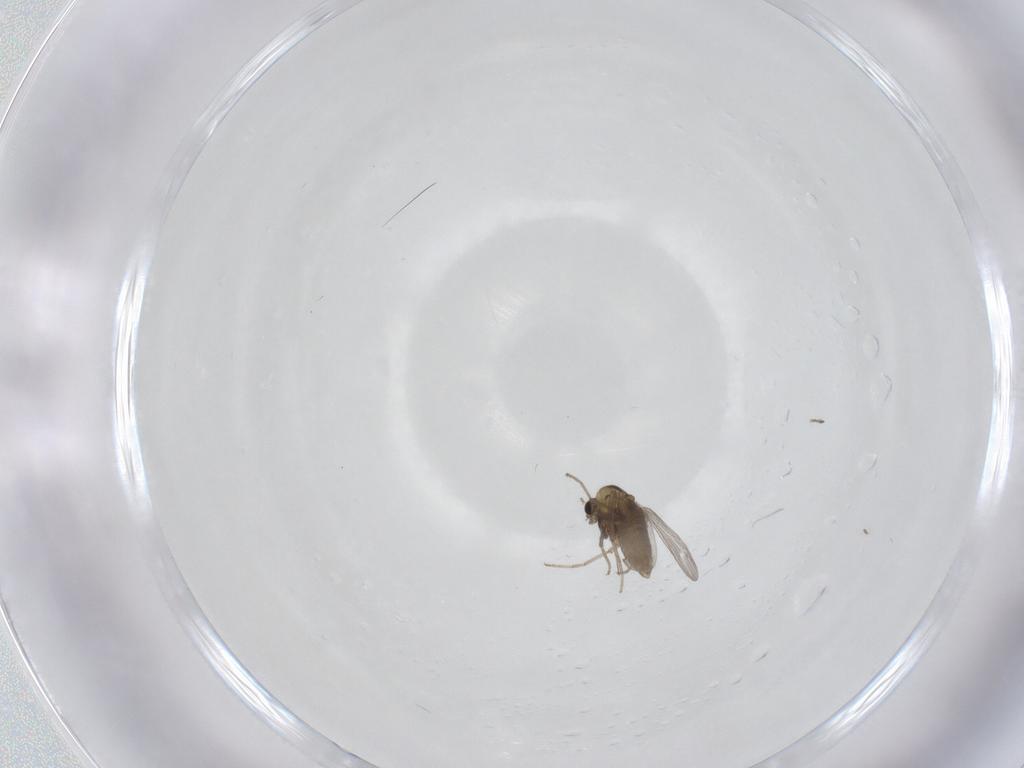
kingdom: Animalia
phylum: Arthropoda
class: Insecta
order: Diptera
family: Chironomidae
